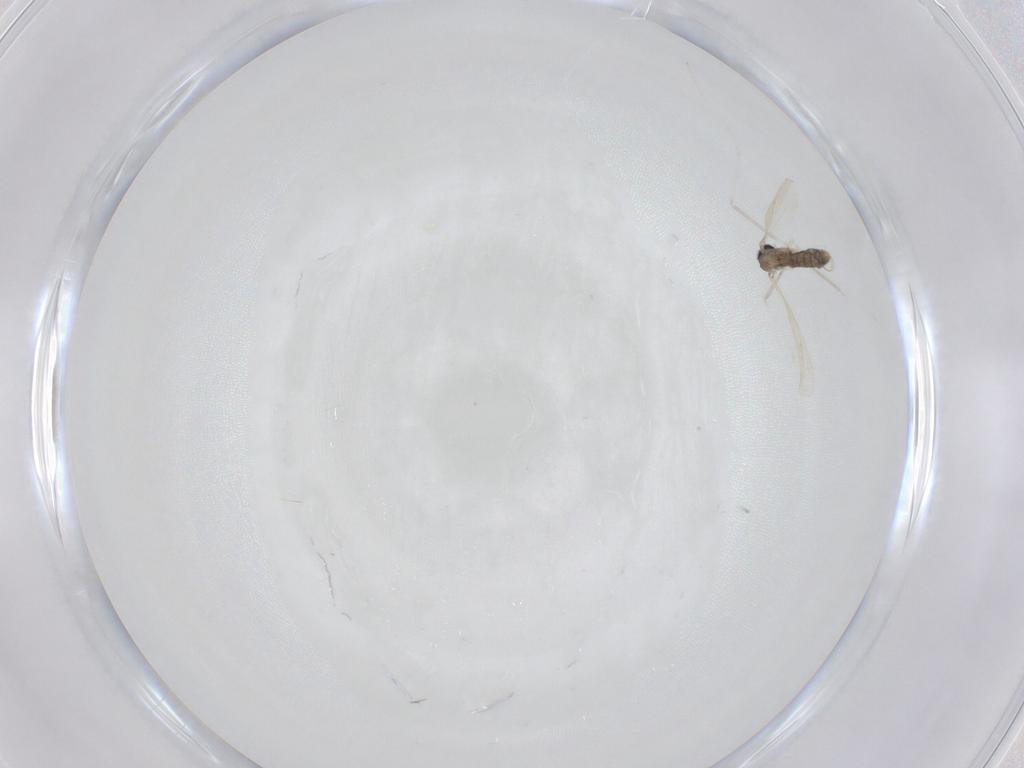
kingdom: Animalia
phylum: Arthropoda
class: Insecta
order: Diptera
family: Cecidomyiidae
